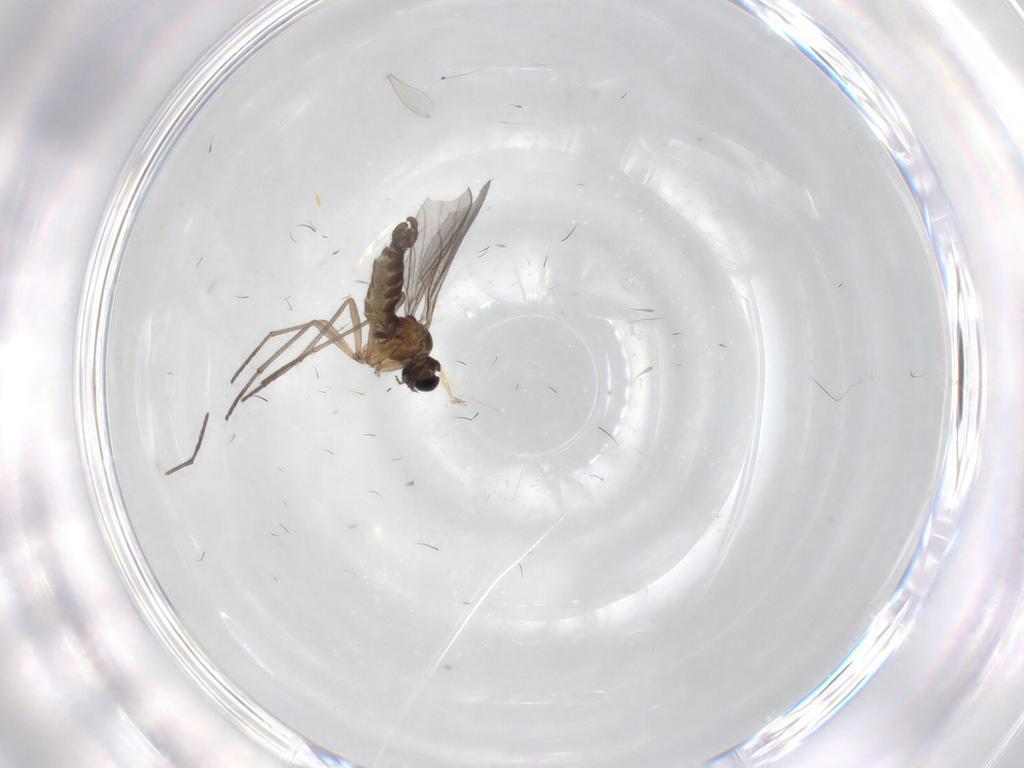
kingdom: Animalia
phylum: Arthropoda
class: Insecta
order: Diptera
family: Sciaridae
